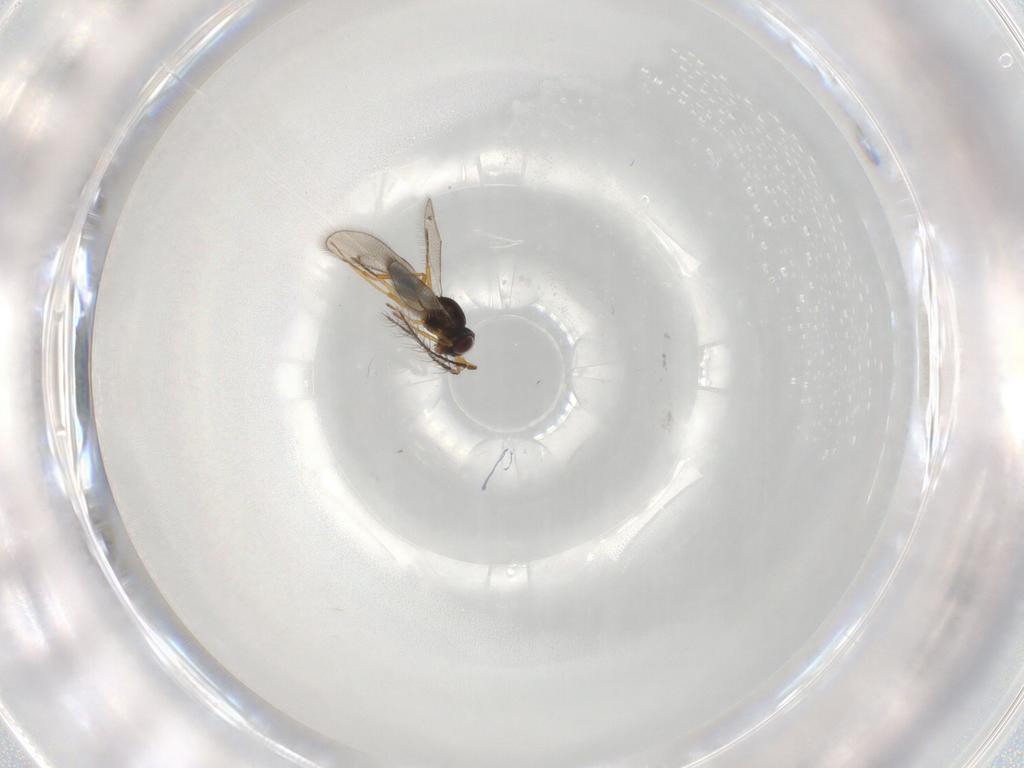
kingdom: Animalia
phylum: Arthropoda
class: Insecta
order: Hymenoptera
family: Eulophidae
